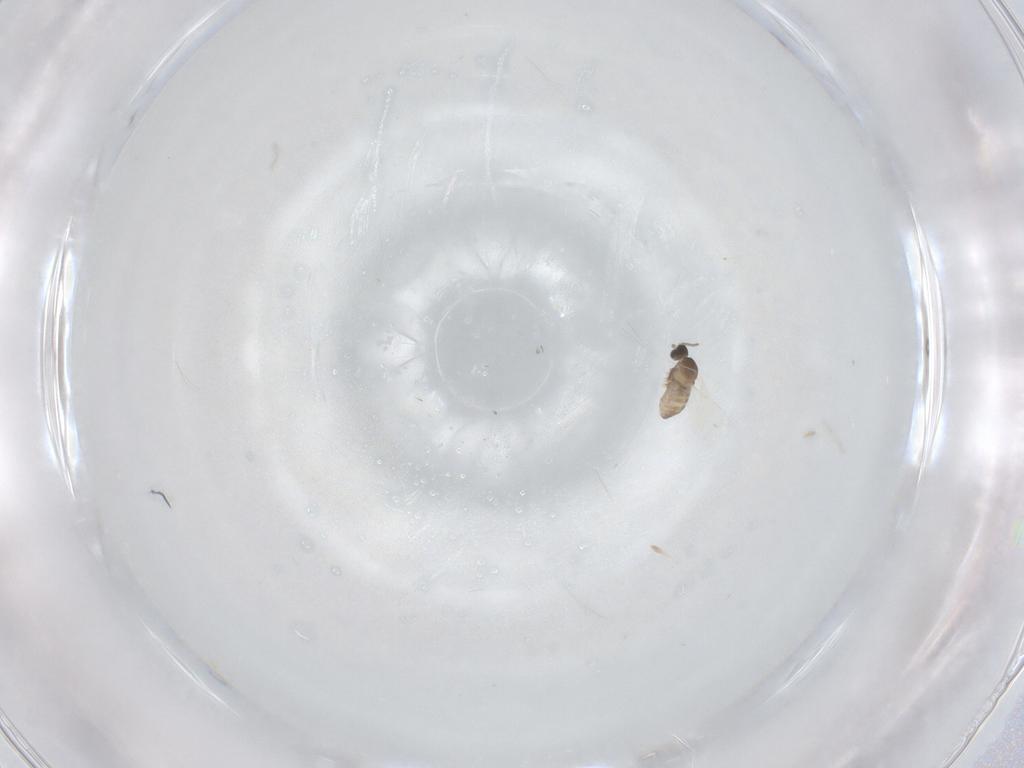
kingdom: Animalia
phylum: Arthropoda
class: Insecta
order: Diptera
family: Cecidomyiidae
